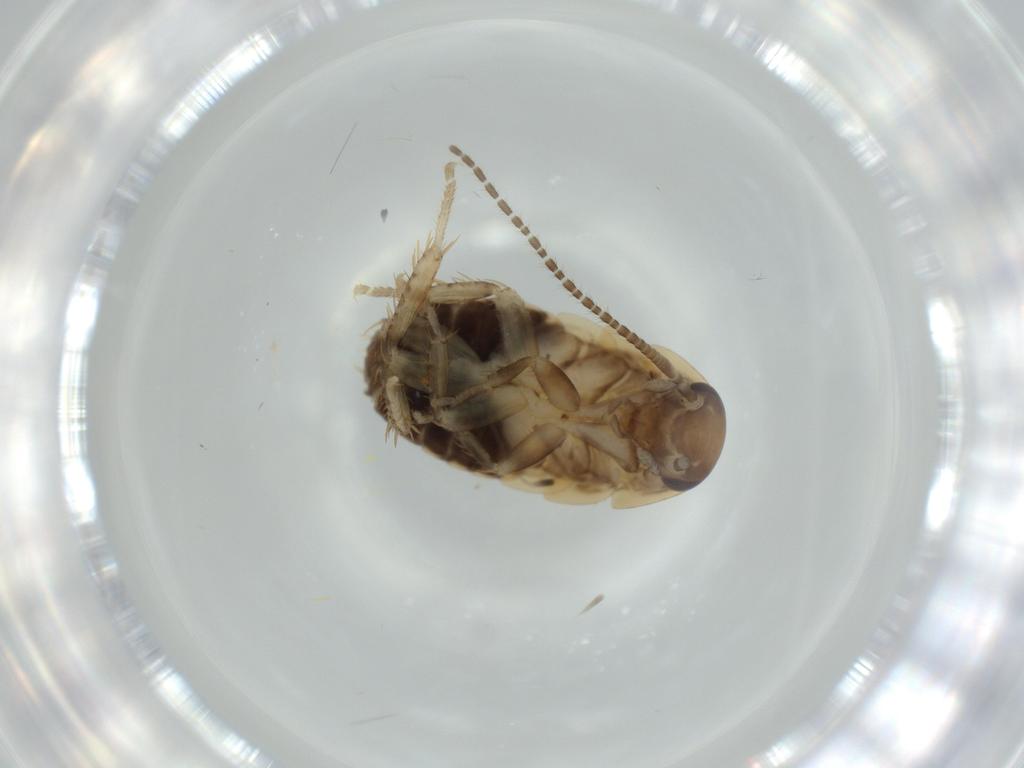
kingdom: Animalia
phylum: Arthropoda
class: Insecta
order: Blattodea
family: Ectobiidae
